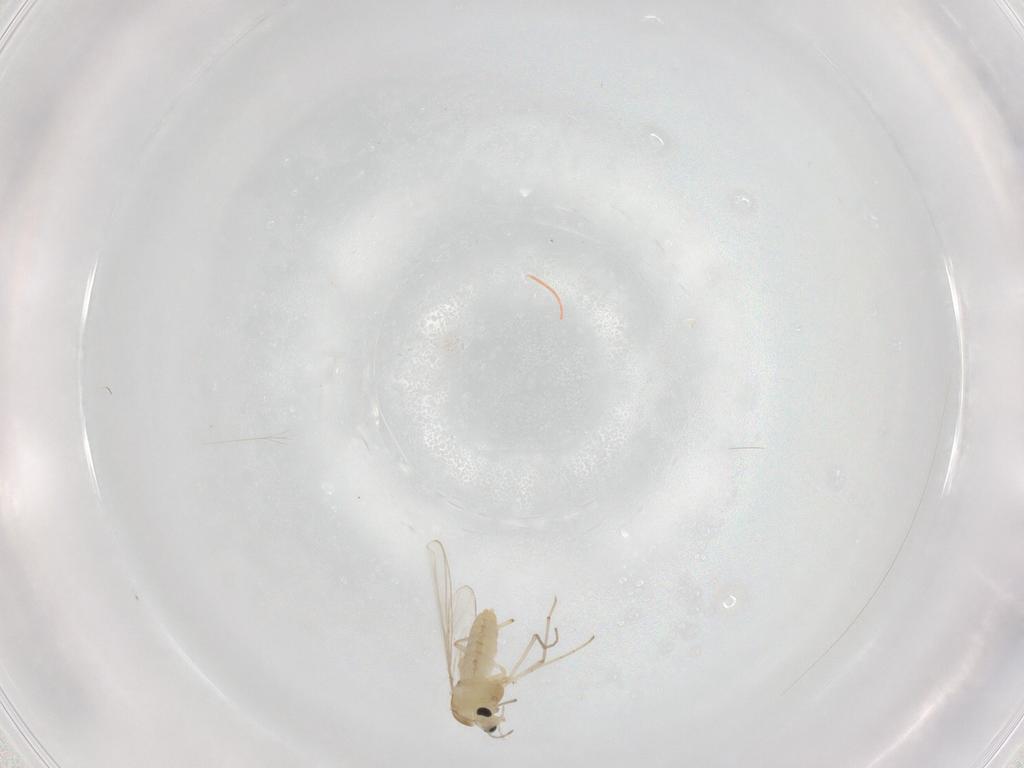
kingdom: Animalia
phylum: Arthropoda
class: Insecta
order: Diptera
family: Chironomidae
